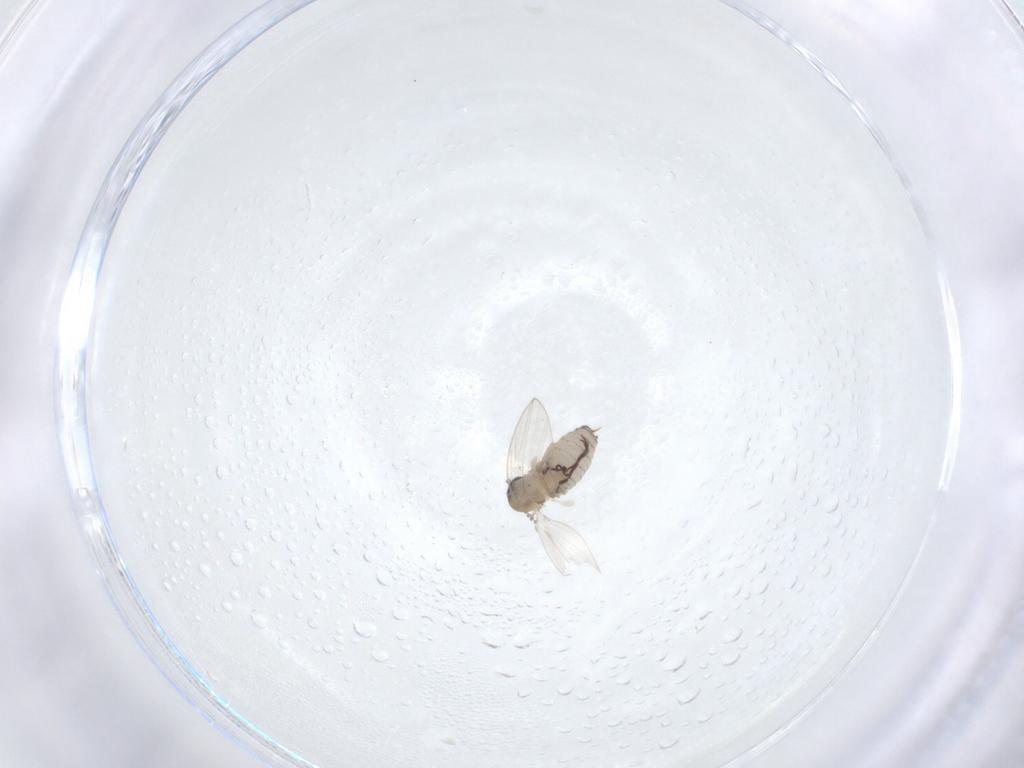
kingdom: Animalia
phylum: Arthropoda
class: Insecta
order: Diptera
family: Psychodidae
